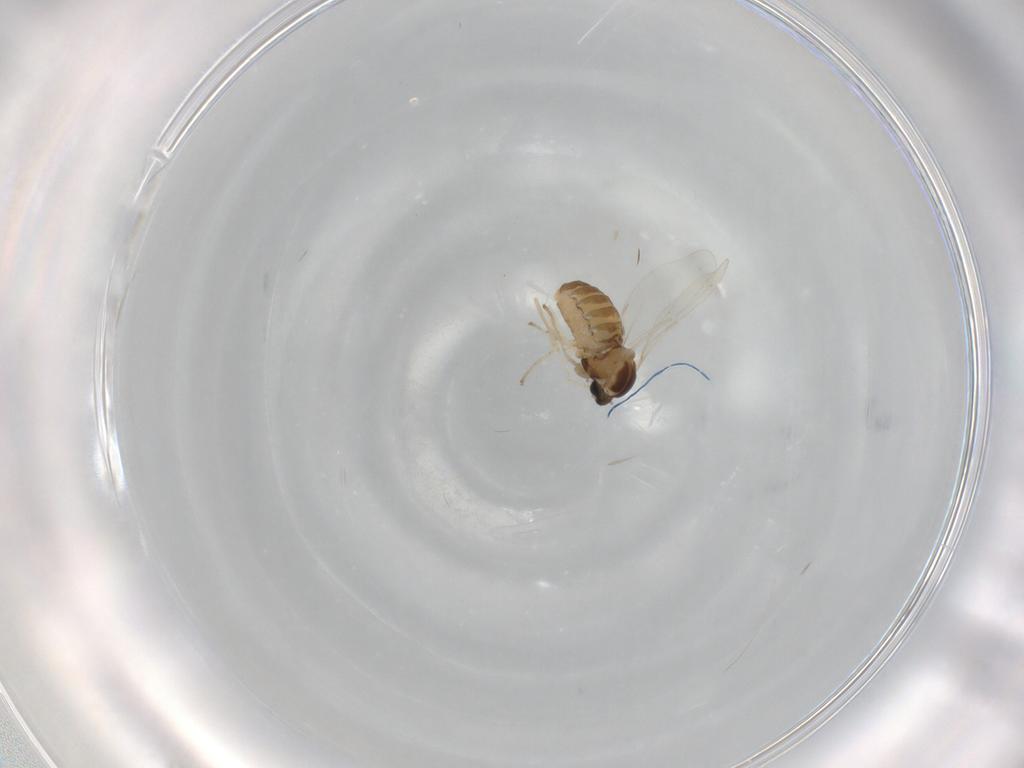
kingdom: Animalia
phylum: Arthropoda
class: Insecta
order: Diptera
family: Cecidomyiidae
